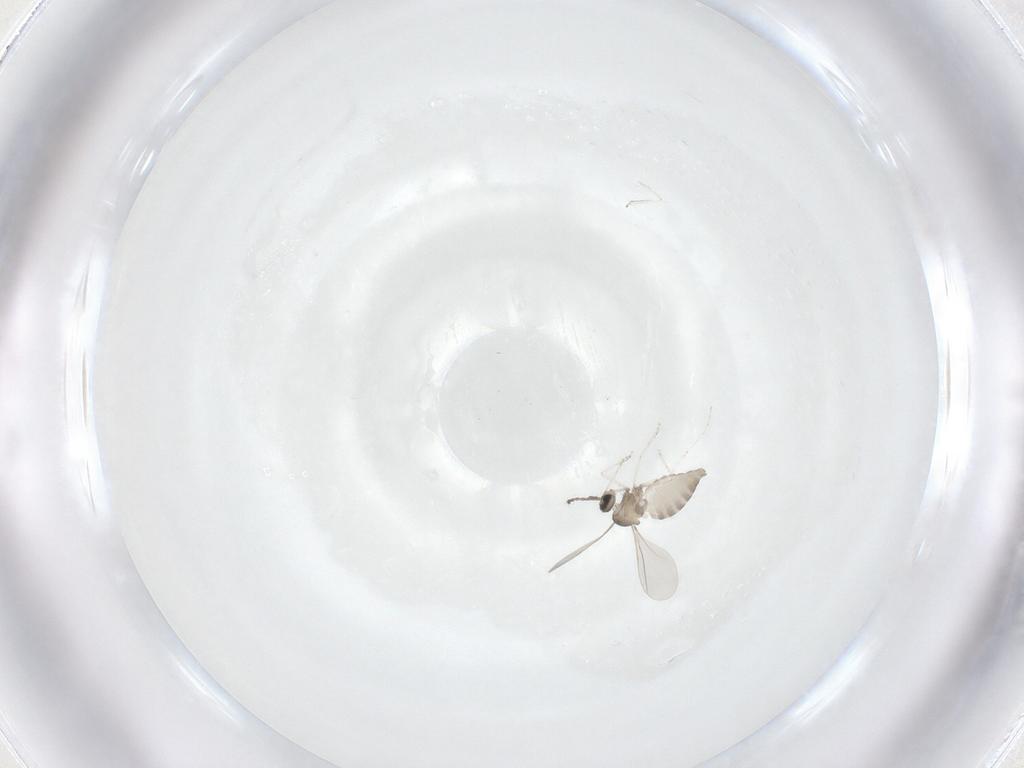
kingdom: Animalia
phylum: Arthropoda
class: Insecta
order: Diptera
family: Cecidomyiidae
